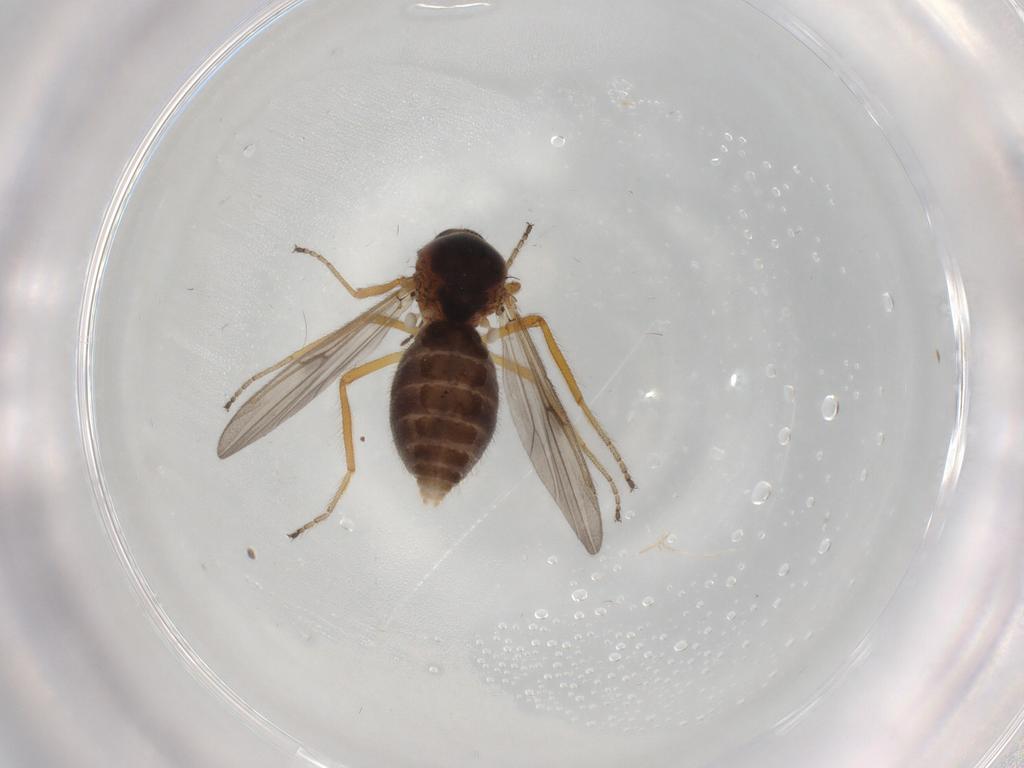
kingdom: Animalia
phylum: Arthropoda
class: Insecta
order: Diptera
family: Ceratopogonidae
